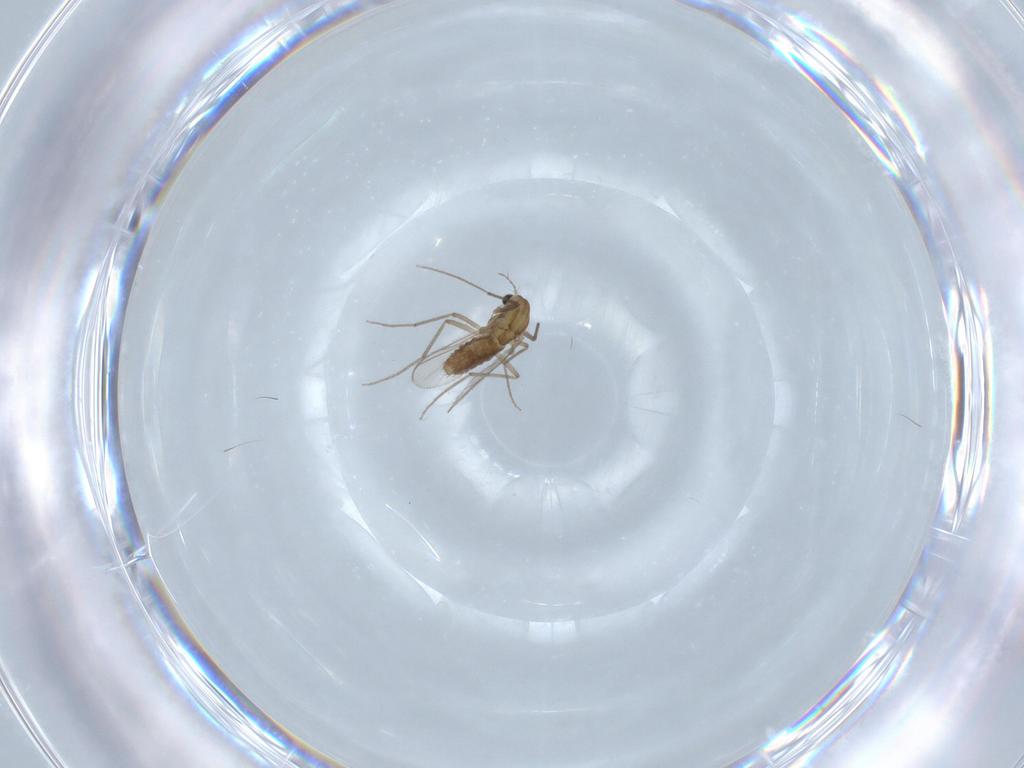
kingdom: Animalia
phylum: Arthropoda
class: Insecta
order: Diptera
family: Chironomidae
